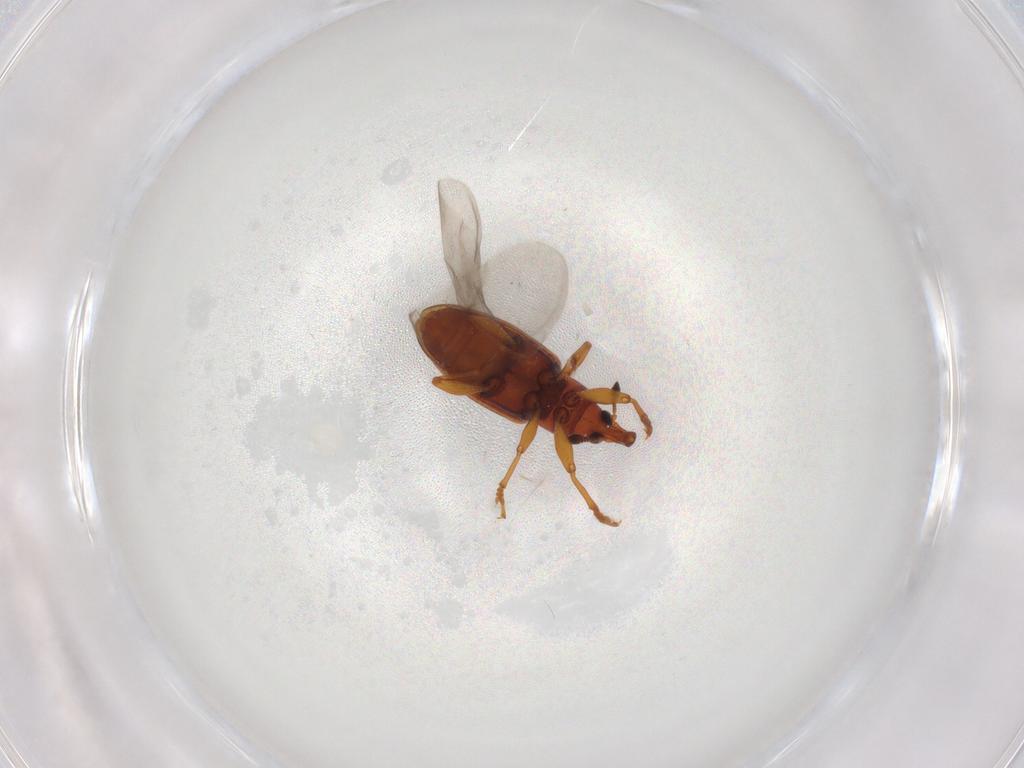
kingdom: Animalia
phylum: Arthropoda
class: Insecta
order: Coleoptera
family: Curculionidae
